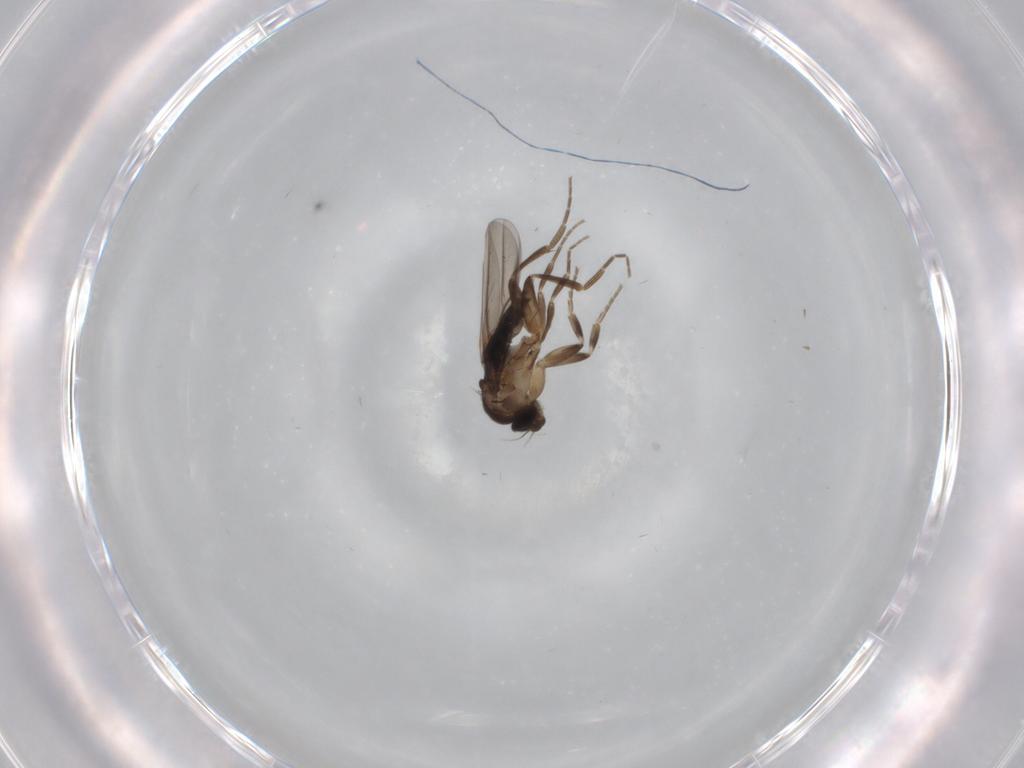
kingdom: Animalia
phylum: Arthropoda
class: Insecta
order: Diptera
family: Phoridae
